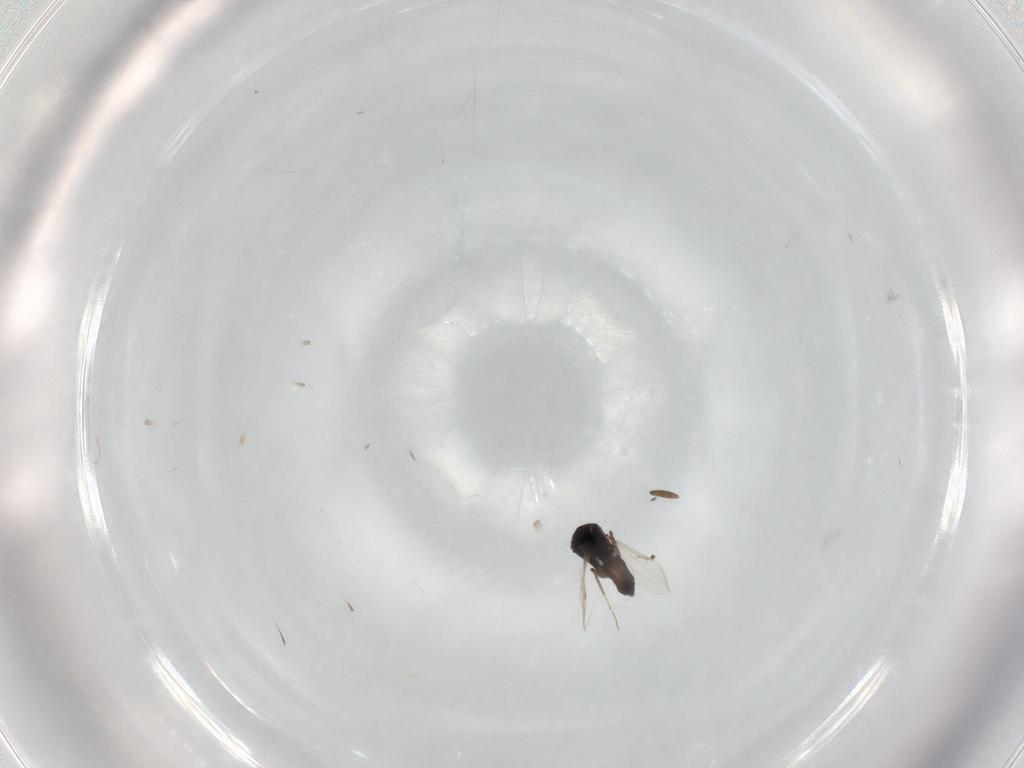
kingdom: Animalia
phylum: Arthropoda
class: Insecta
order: Diptera
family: Ceratopogonidae
